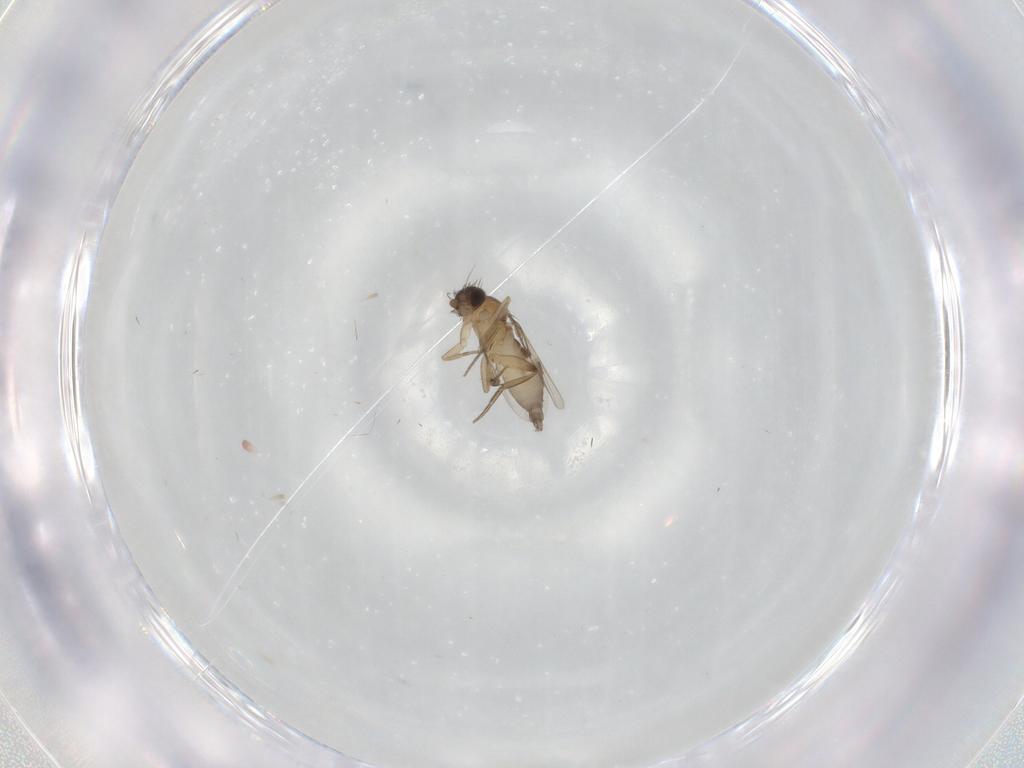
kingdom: Animalia
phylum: Arthropoda
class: Insecta
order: Diptera
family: Phoridae
